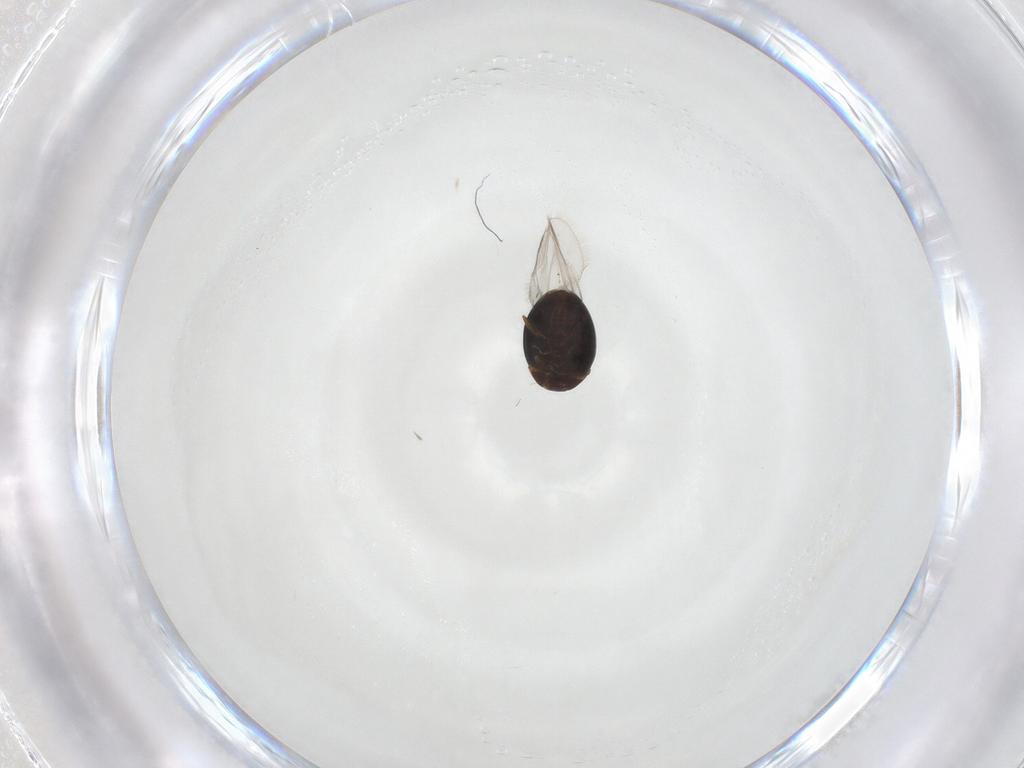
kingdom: Animalia
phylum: Arthropoda
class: Insecta
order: Coleoptera
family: Corylophidae
